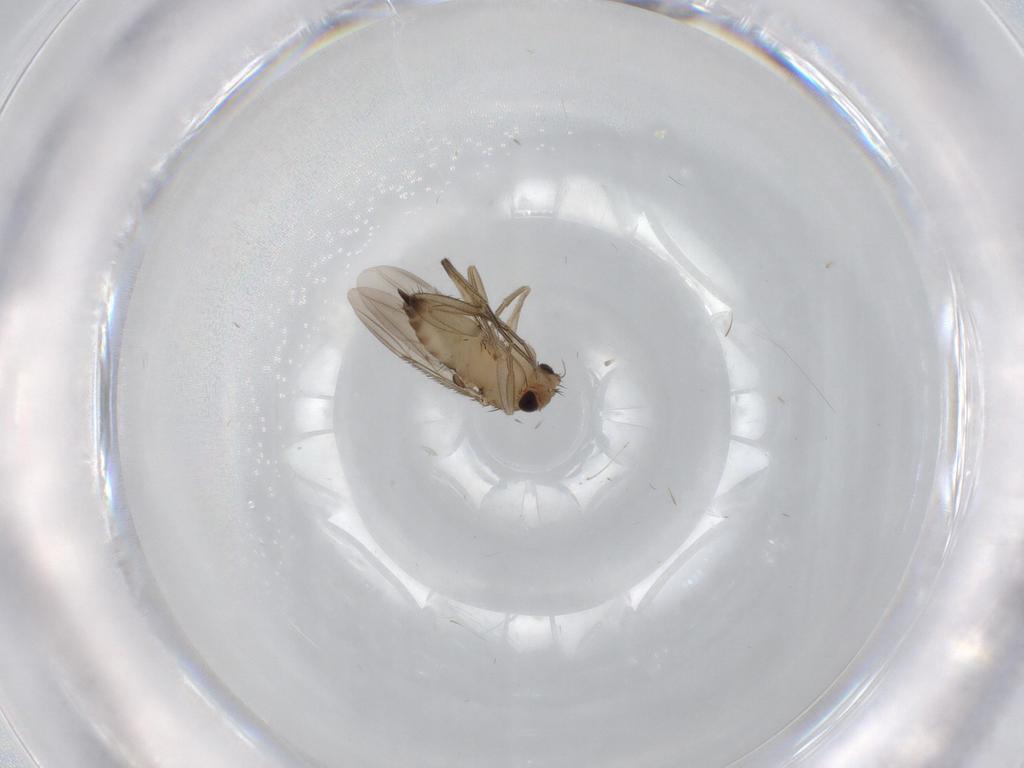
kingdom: Animalia
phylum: Arthropoda
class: Insecta
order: Diptera
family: Phoridae
